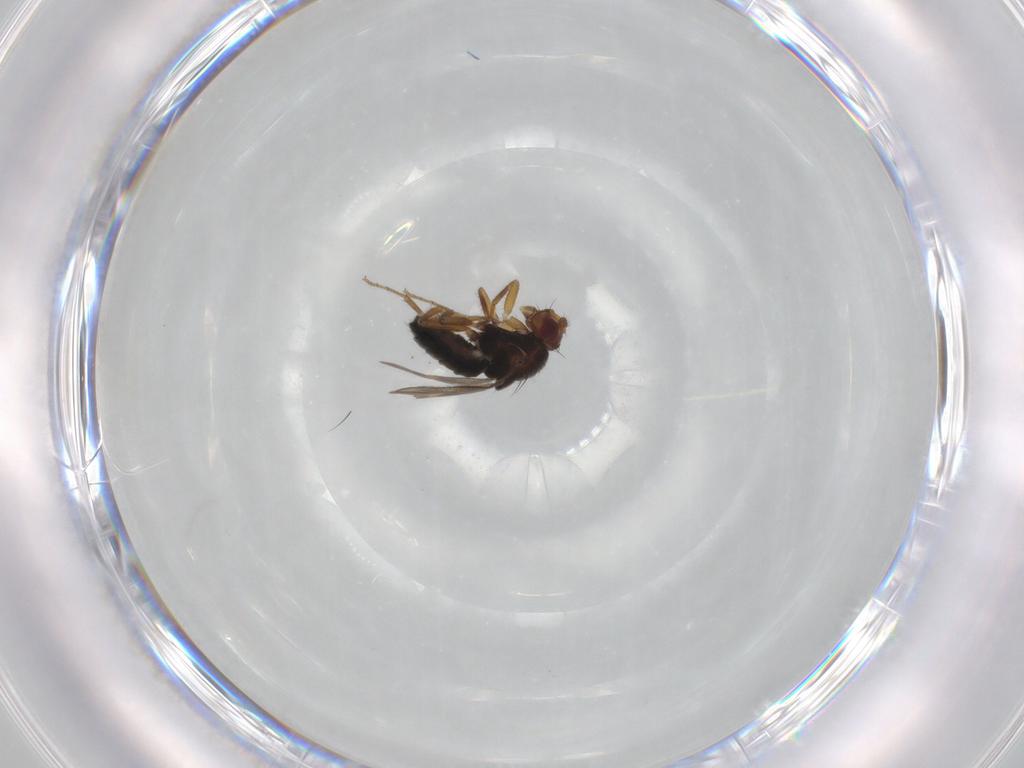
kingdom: Animalia
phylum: Arthropoda
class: Insecta
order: Diptera
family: Sphaeroceridae
